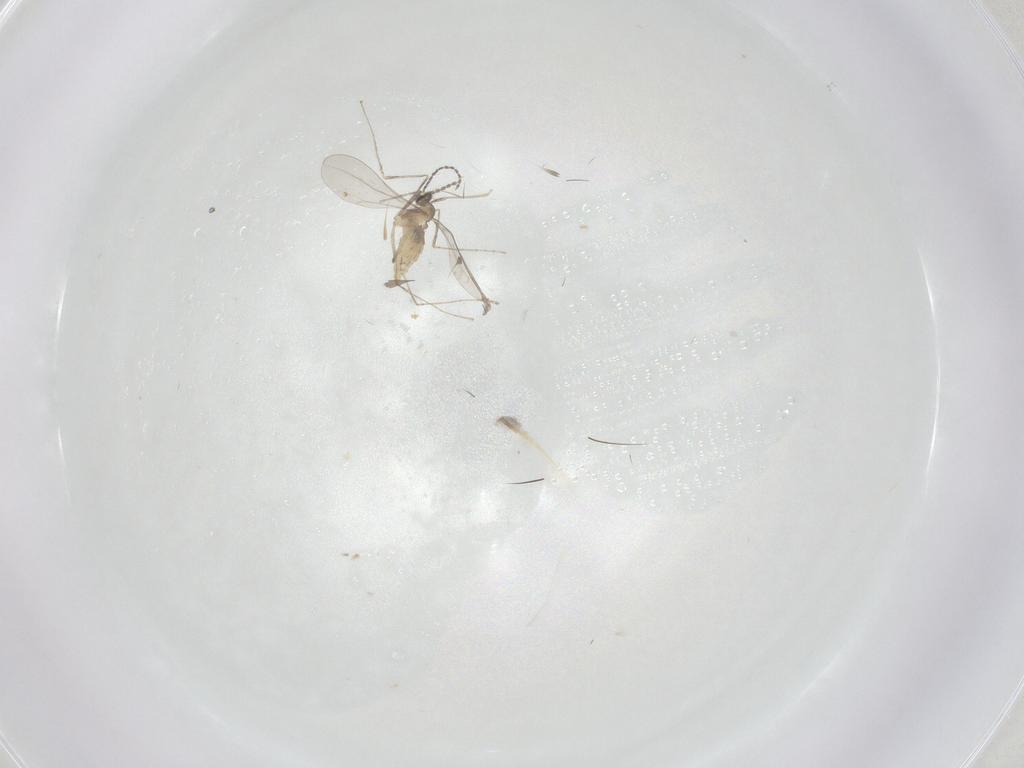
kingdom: Animalia
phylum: Arthropoda
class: Insecta
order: Diptera
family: Cecidomyiidae
